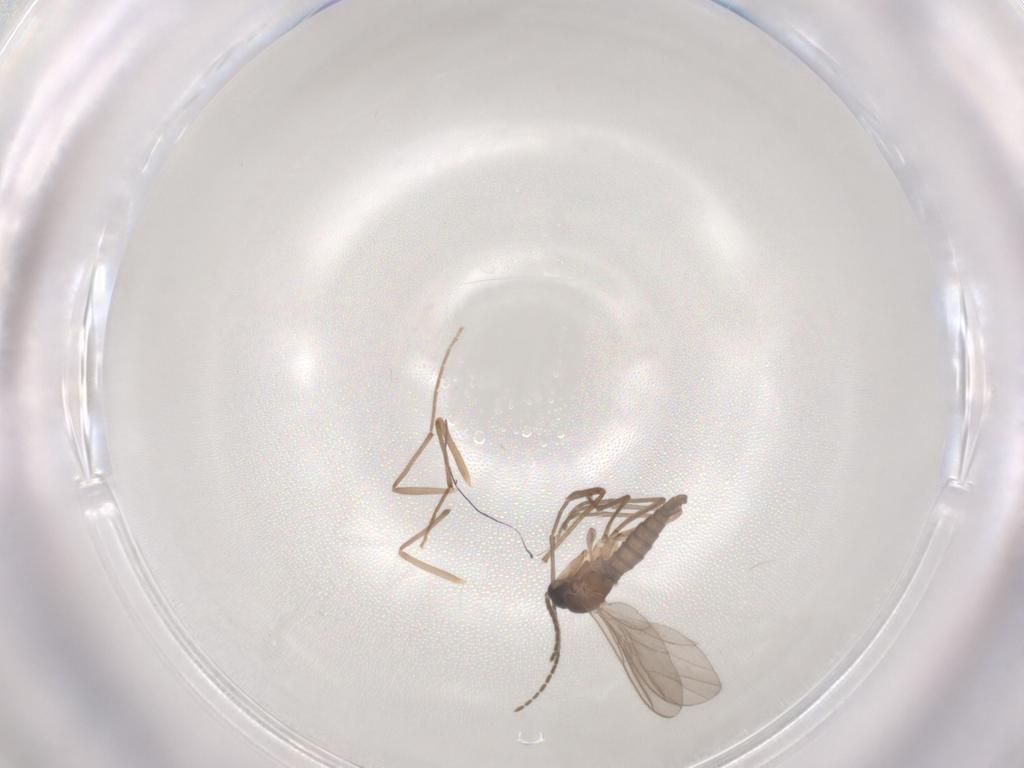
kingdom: Animalia
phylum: Arthropoda
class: Insecta
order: Diptera
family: Sciaridae
